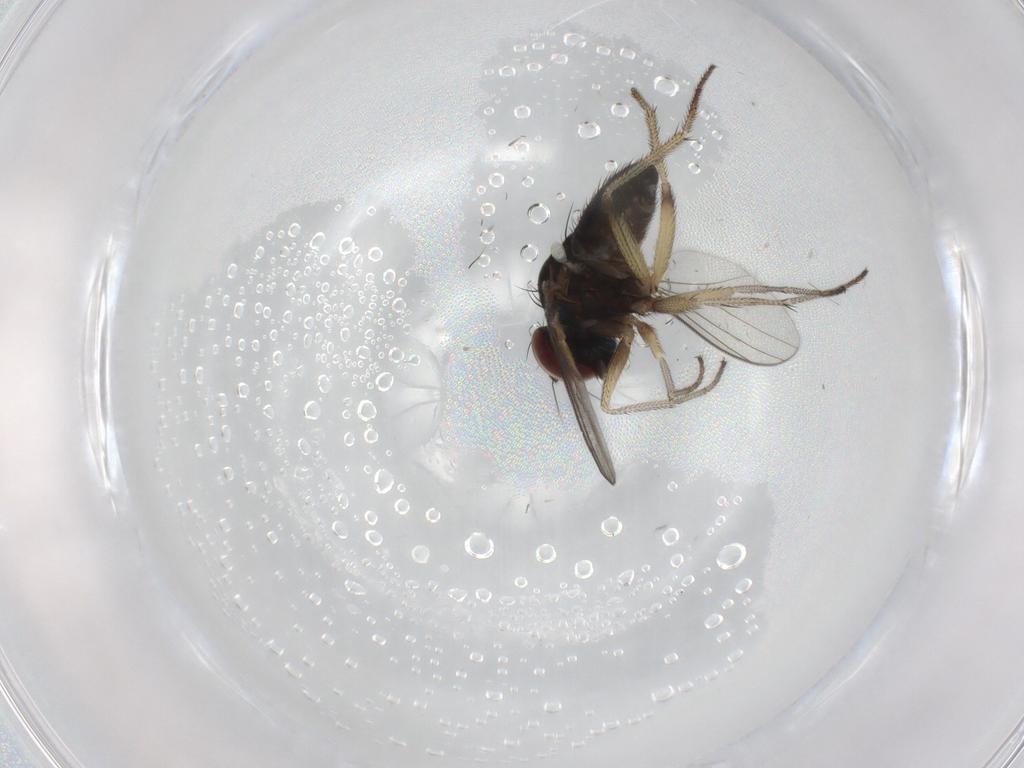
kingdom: Animalia
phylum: Arthropoda
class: Insecta
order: Diptera
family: Dolichopodidae
